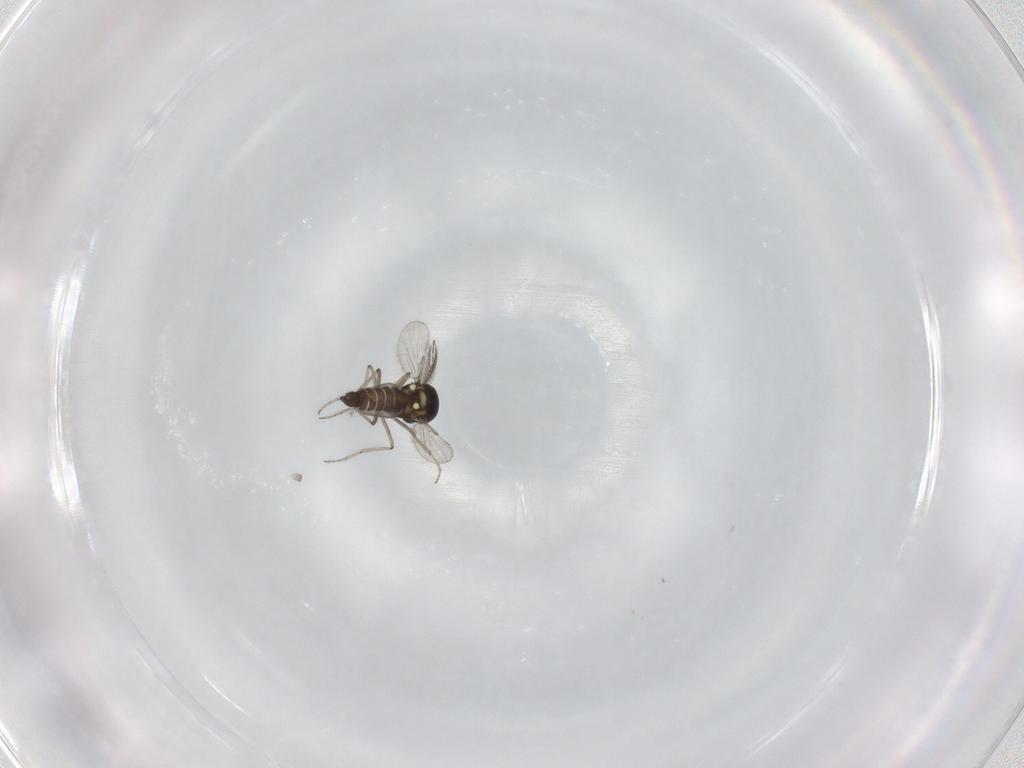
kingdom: Animalia
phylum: Arthropoda
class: Insecta
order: Diptera
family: Ceratopogonidae
